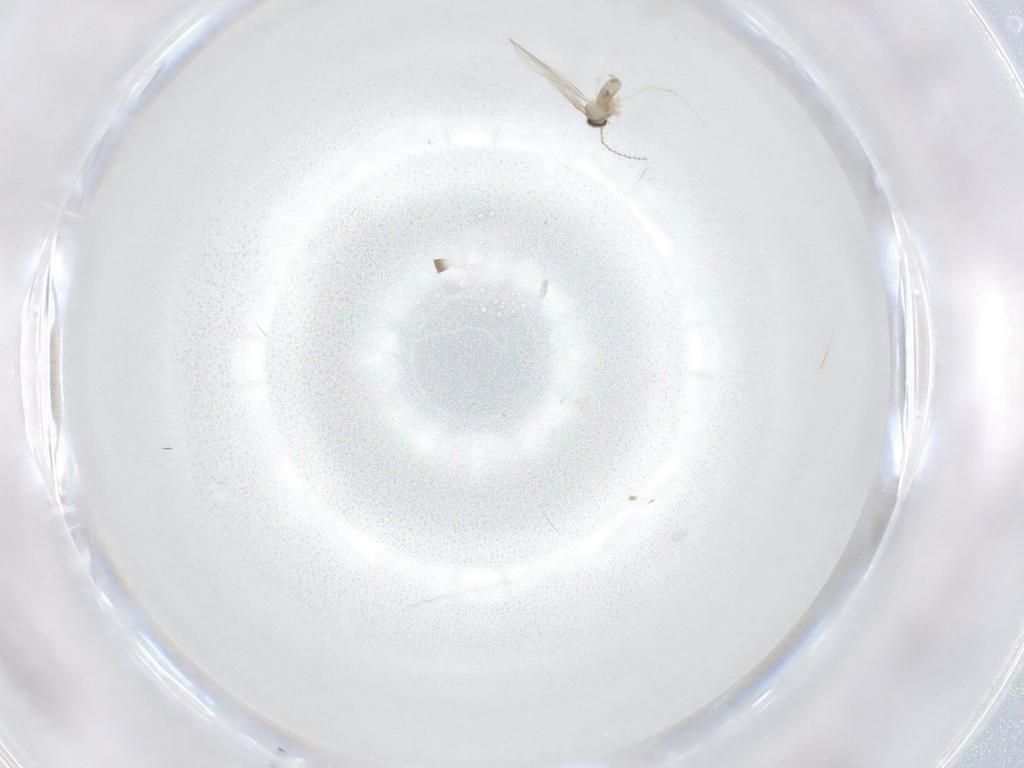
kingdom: Animalia
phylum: Arthropoda
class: Insecta
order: Diptera
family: Cecidomyiidae
